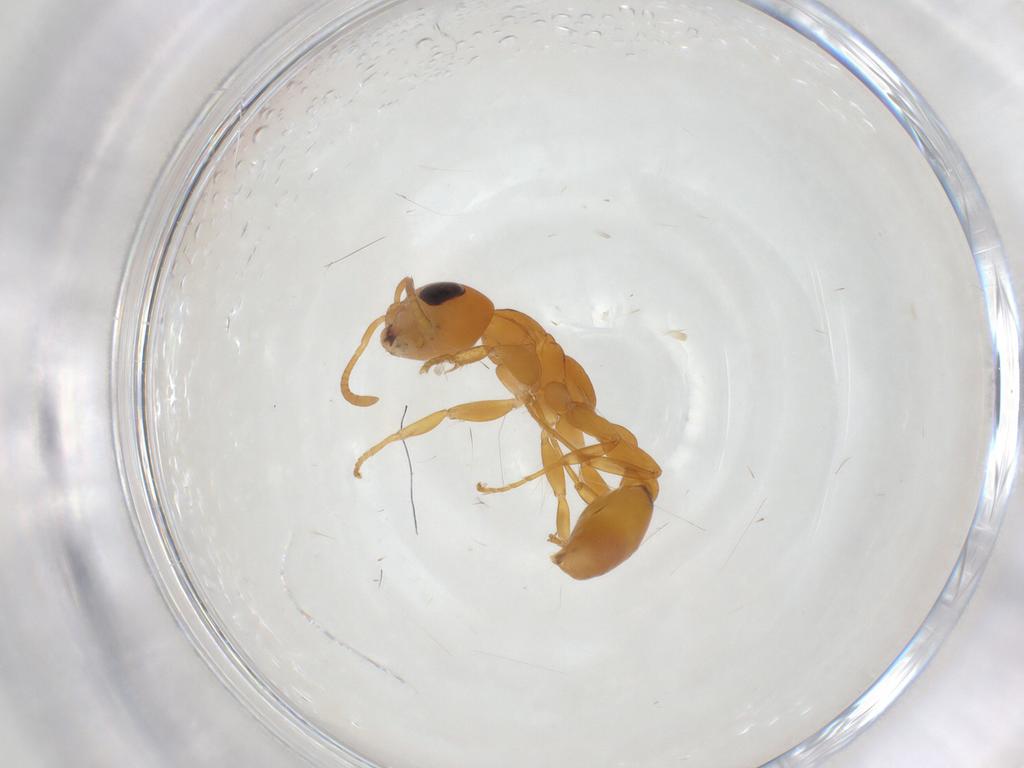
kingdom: Animalia
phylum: Arthropoda
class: Insecta
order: Hymenoptera
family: Formicidae
